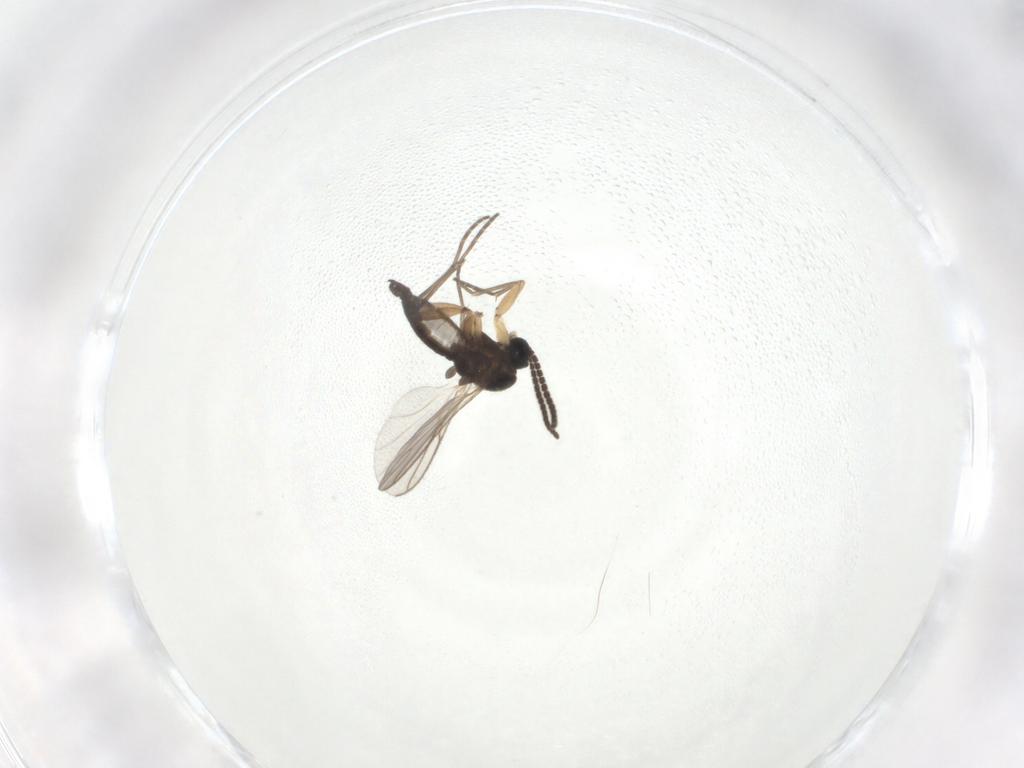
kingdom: Animalia
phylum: Arthropoda
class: Insecta
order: Diptera
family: Sciaridae
